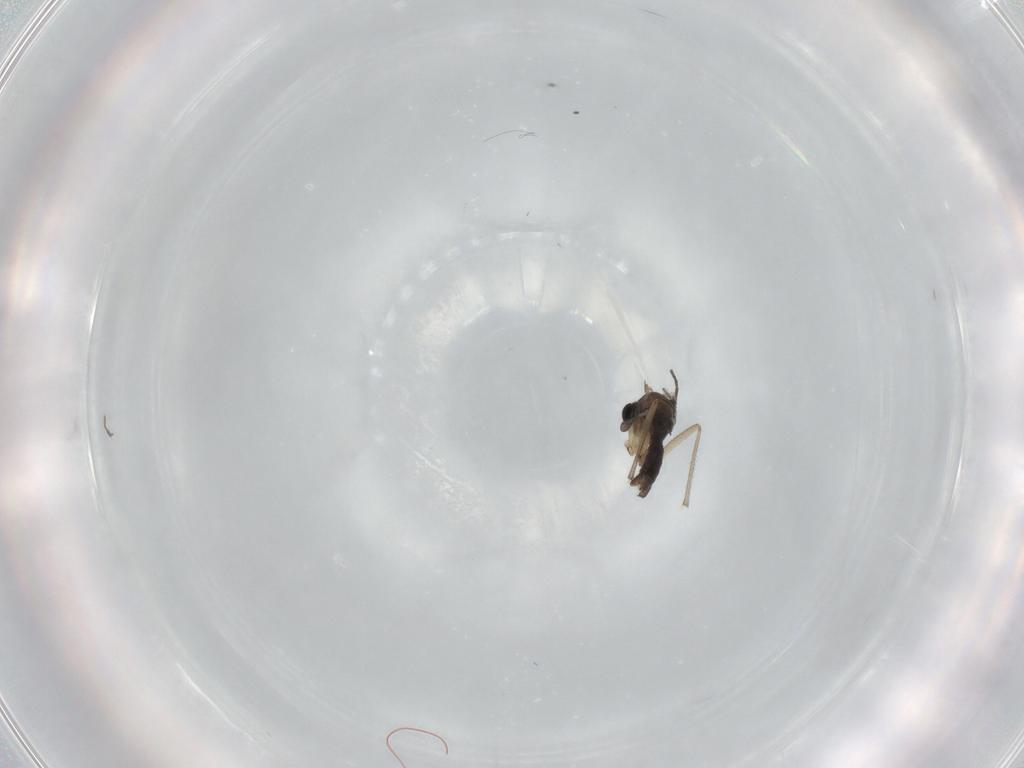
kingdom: Animalia
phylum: Arthropoda
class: Insecta
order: Diptera
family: Sciaridae
